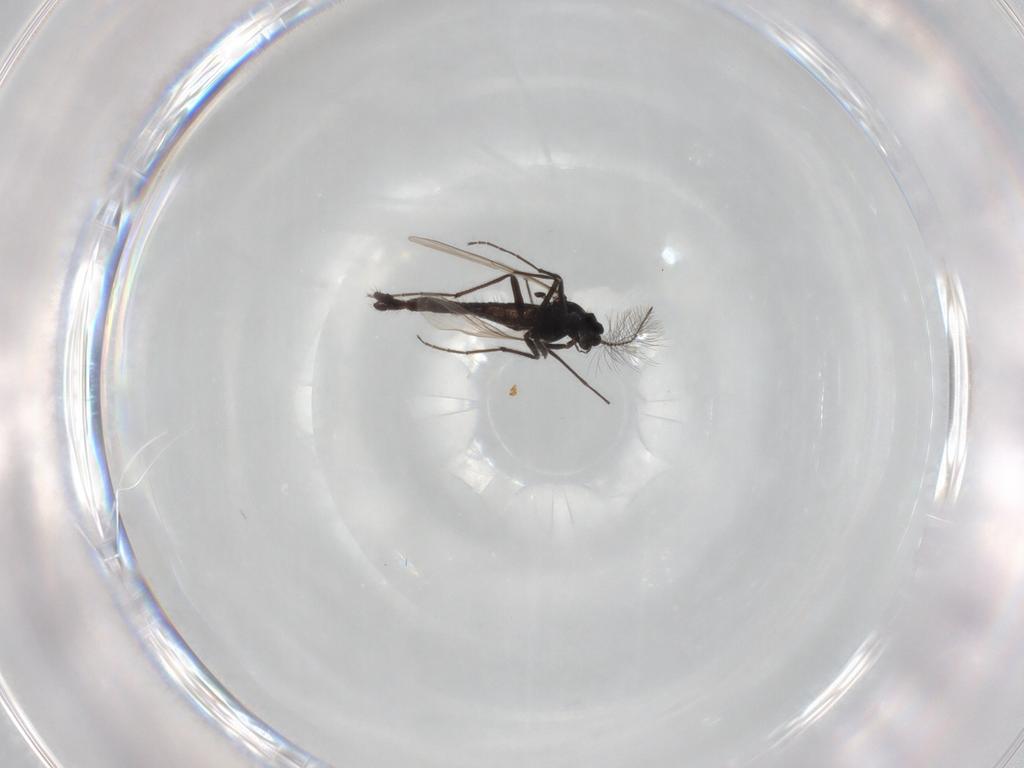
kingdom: Animalia
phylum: Arthropoda
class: Insecta
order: Diptera
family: Chironomidae
